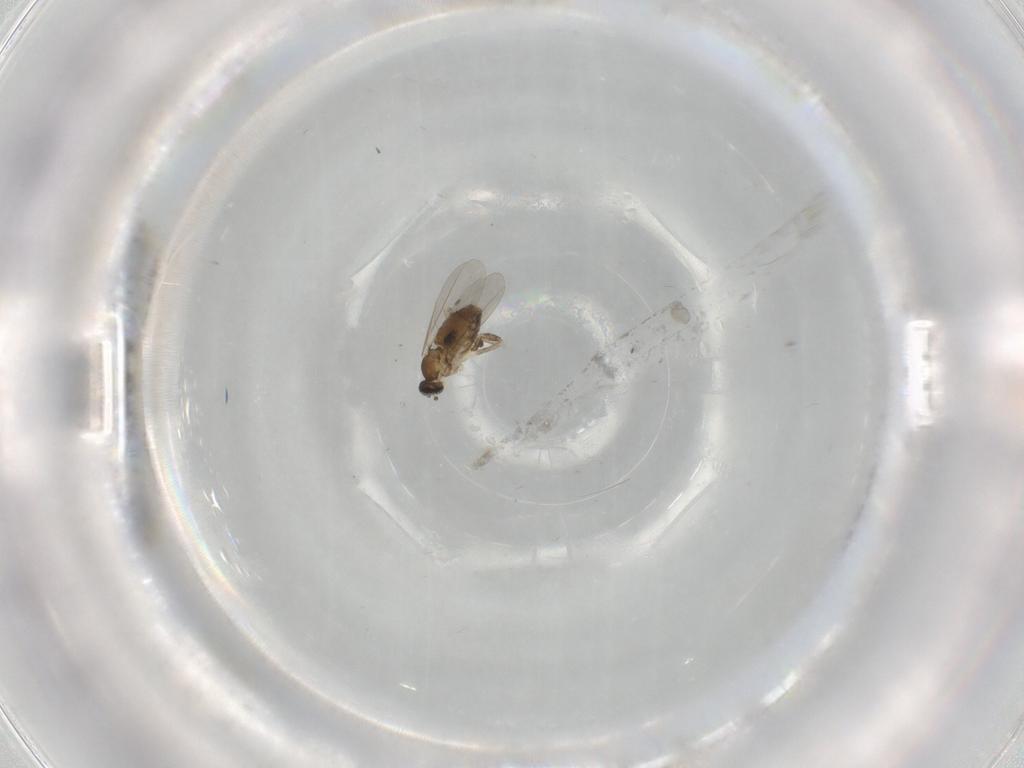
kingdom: Animalia
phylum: Arthropoda
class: Insecta
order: Diptera
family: Cecidomyiidae
